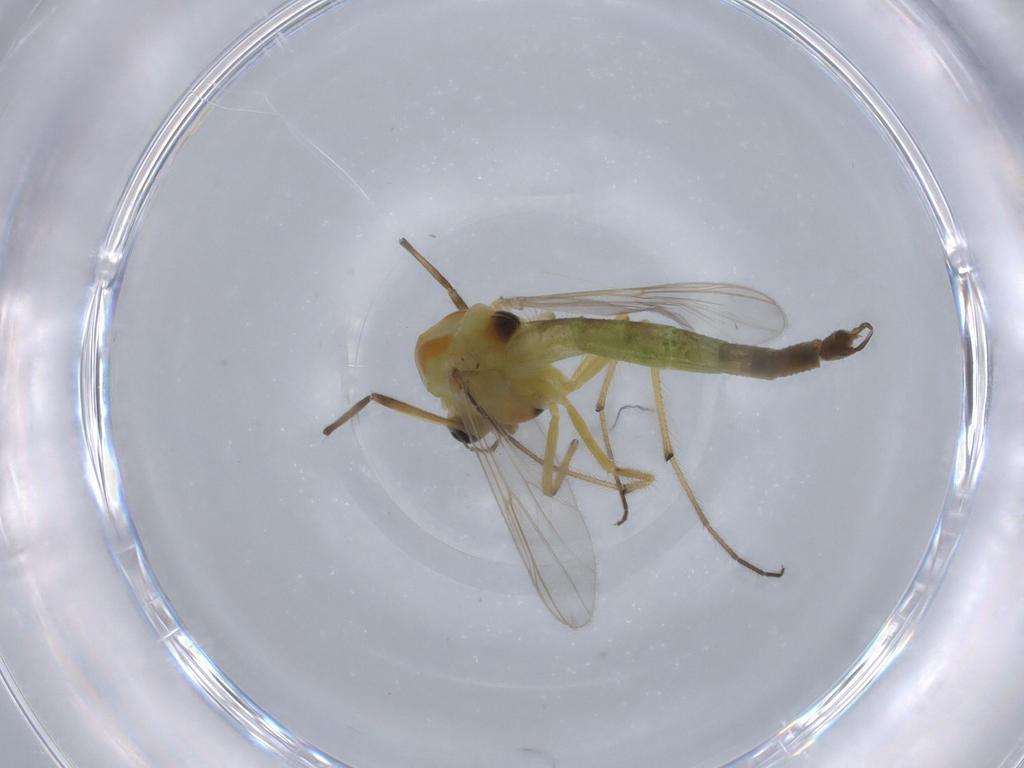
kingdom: Animalia
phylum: Arthropoda
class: Insecta
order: Diptera
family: Chironomidae
